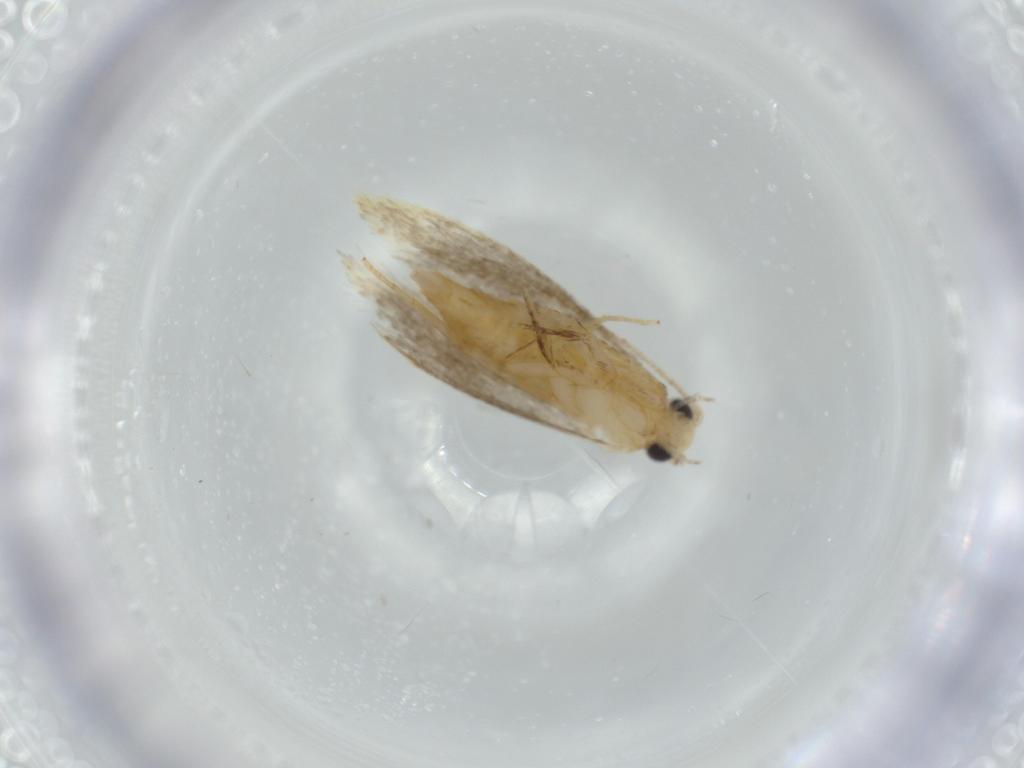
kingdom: Animalia
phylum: Arthropoda
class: Insecta
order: Lepidoptera
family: Tineidae
